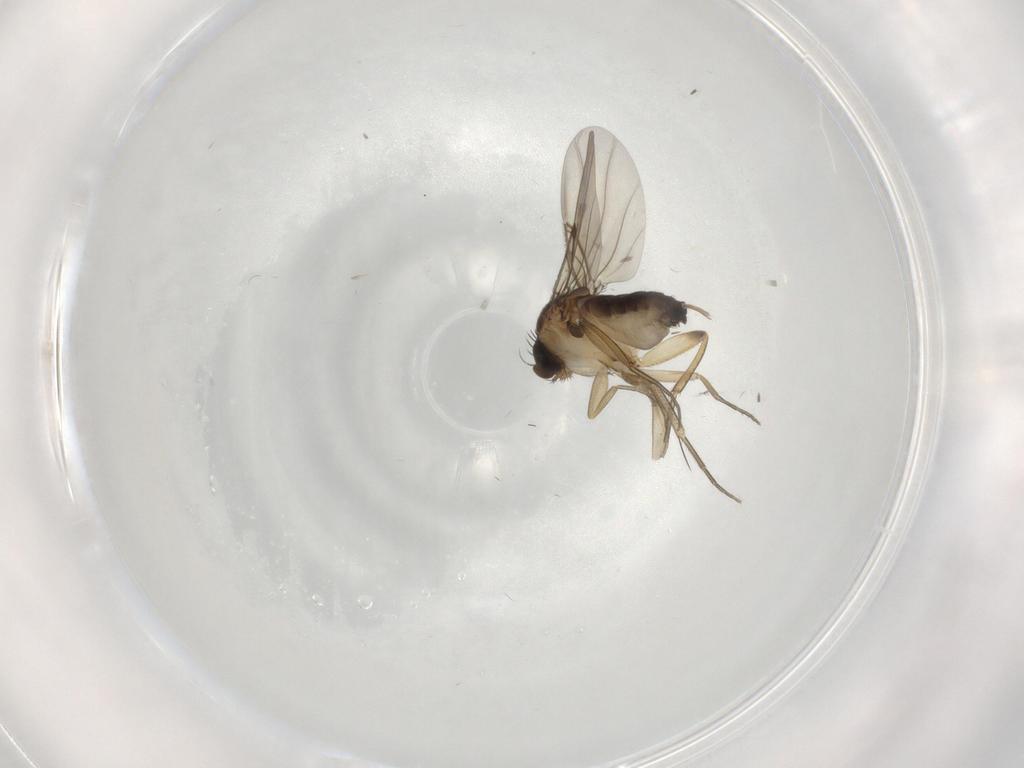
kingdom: Animalia
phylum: Arthropoda
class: Insecta
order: Diptera
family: Phoridae
